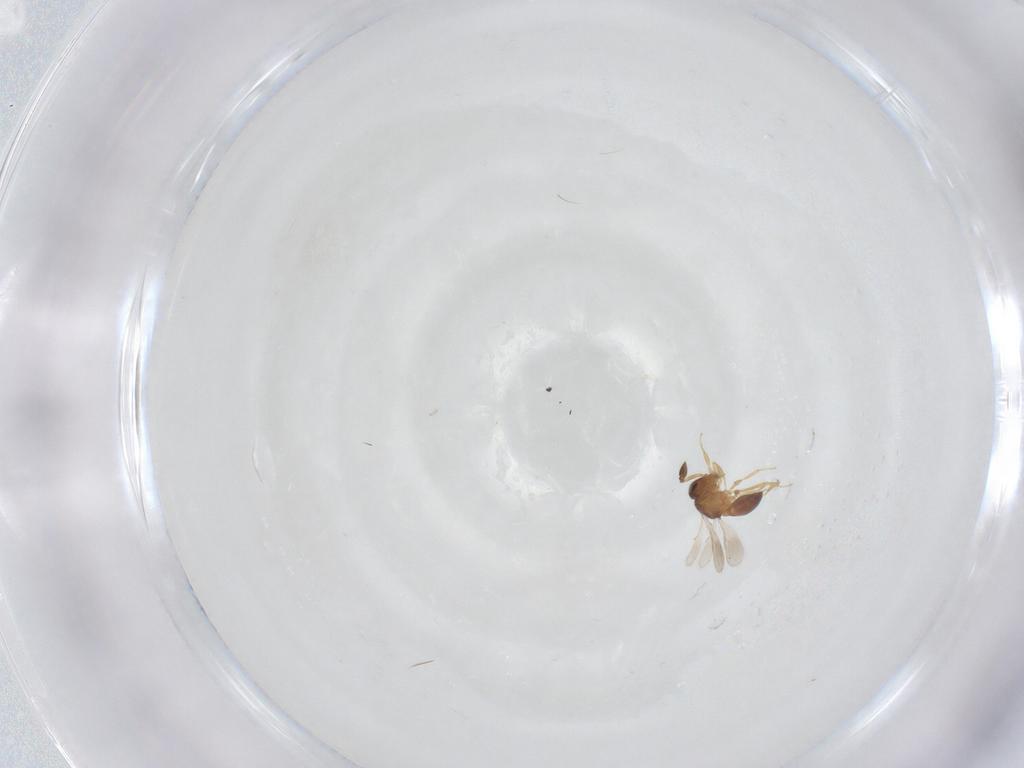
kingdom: Animalia
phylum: Arthropoda
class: Insecta
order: Hymenoptera
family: Scelionidae
